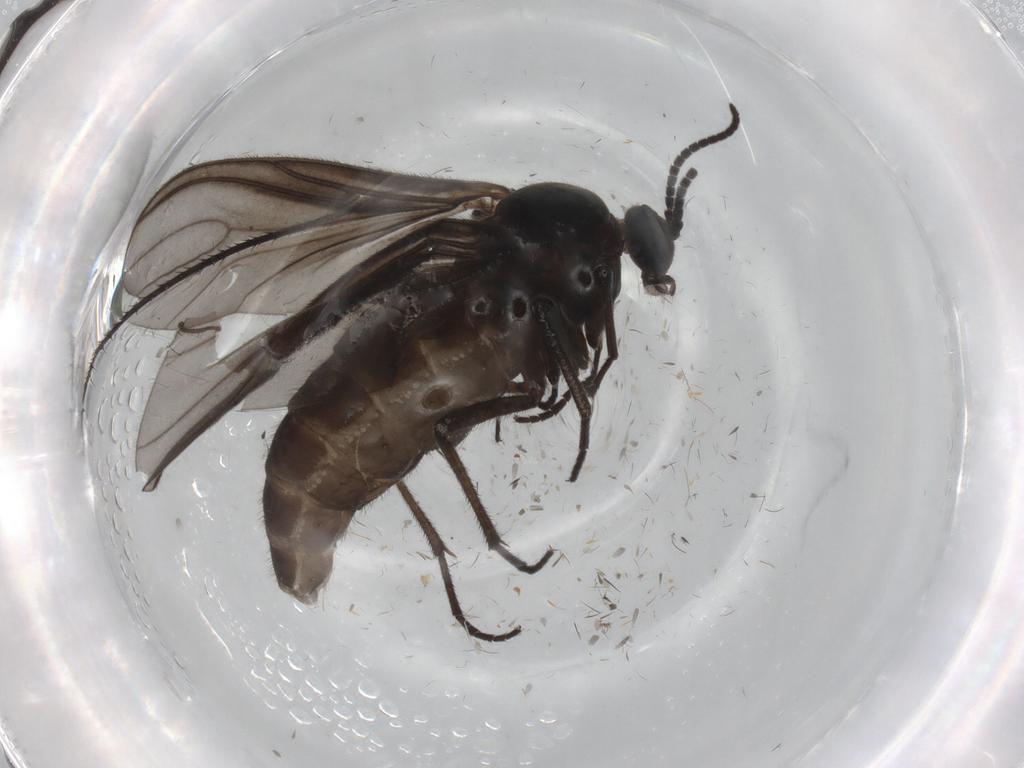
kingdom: Animalia
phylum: Arthropoda
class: Insecta
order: Diptera
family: Sciaridae
